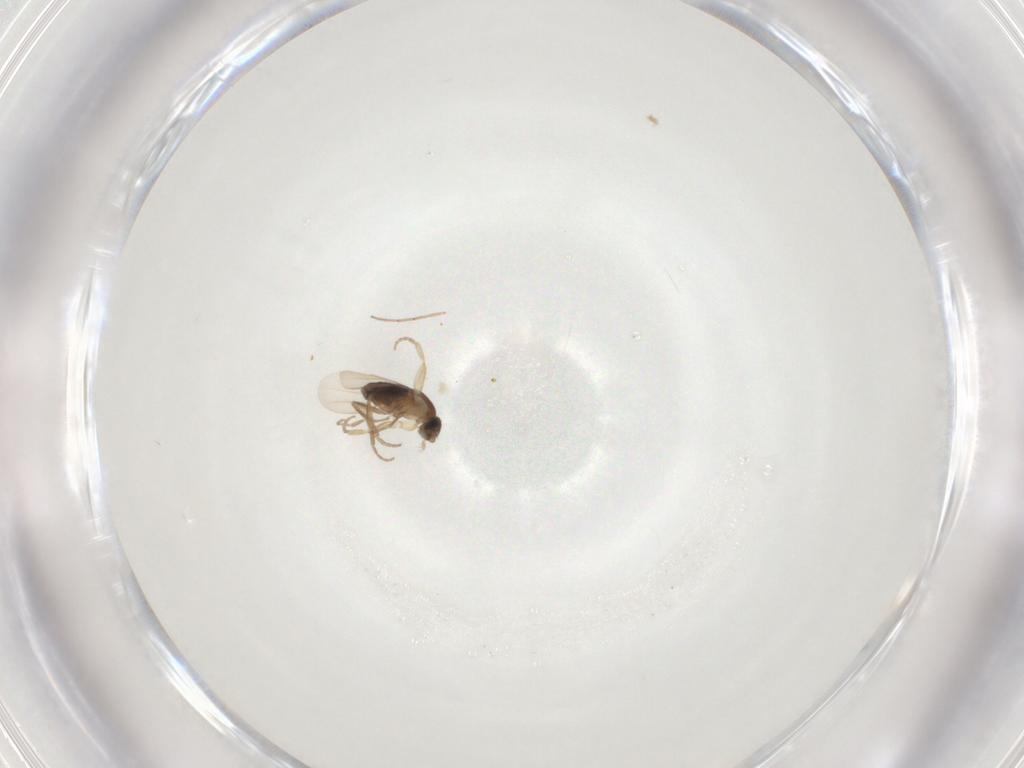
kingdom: Animalia
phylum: Arthropoda
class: Insecta
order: Diptera
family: Phoridae
